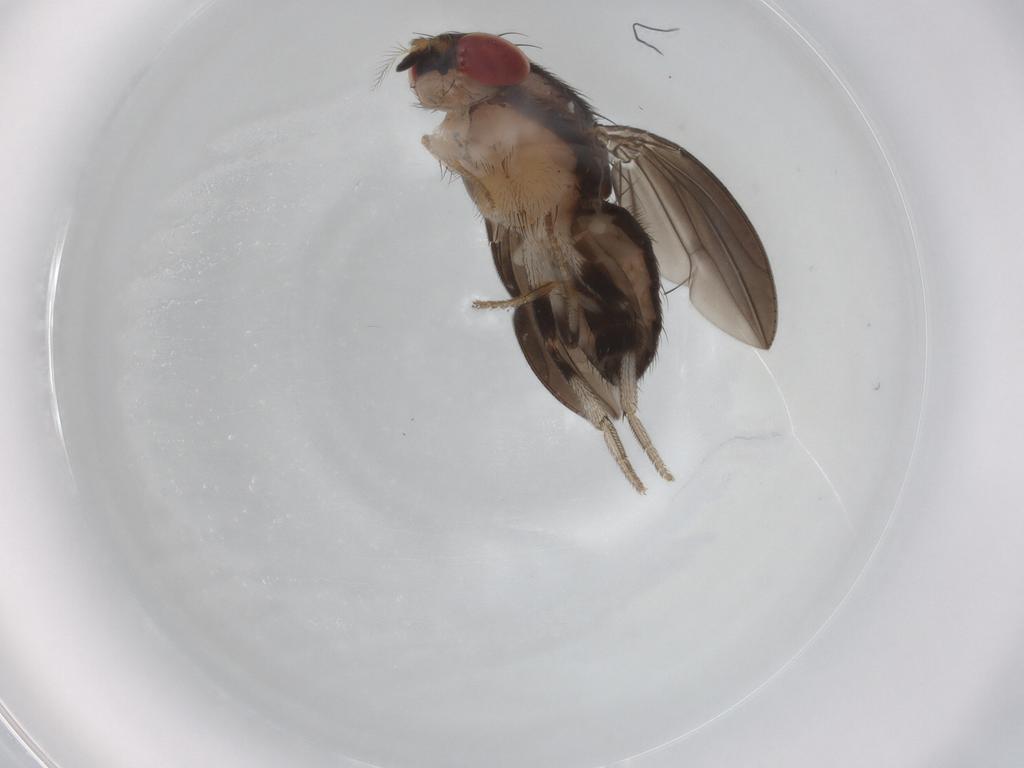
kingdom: Animalia
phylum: Arthropoda
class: Insecta
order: Diptera
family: Drosophilidae
